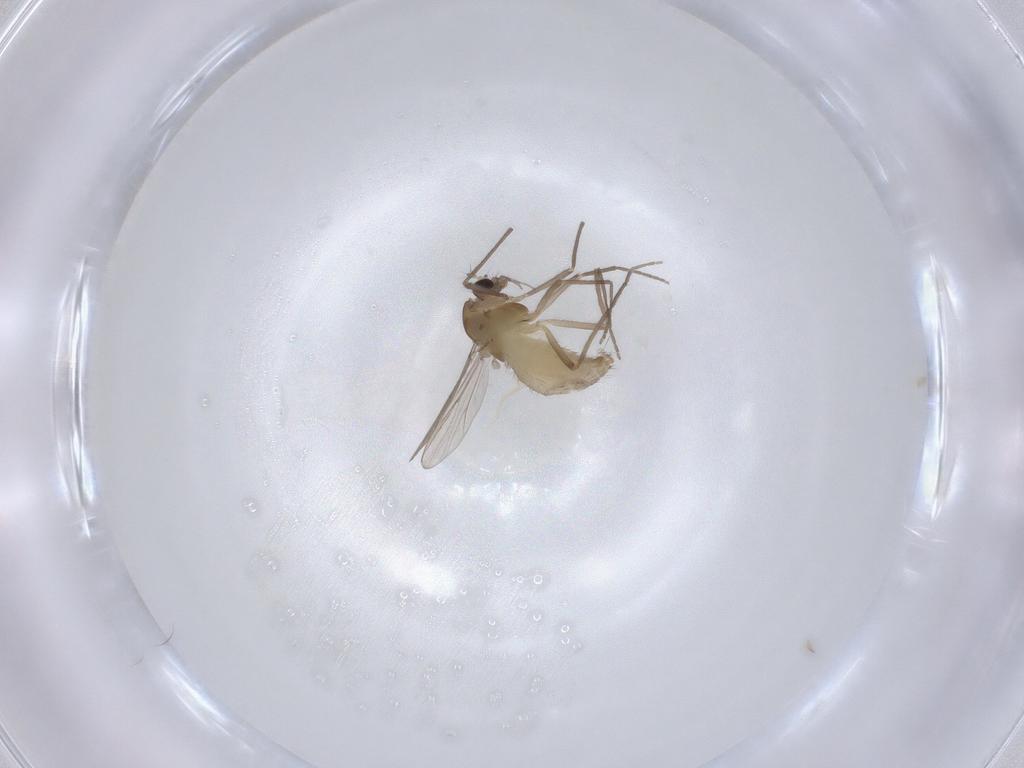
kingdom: Animalia
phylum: Arthropoda
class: Insecta
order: Diptera
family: Chironomidae
